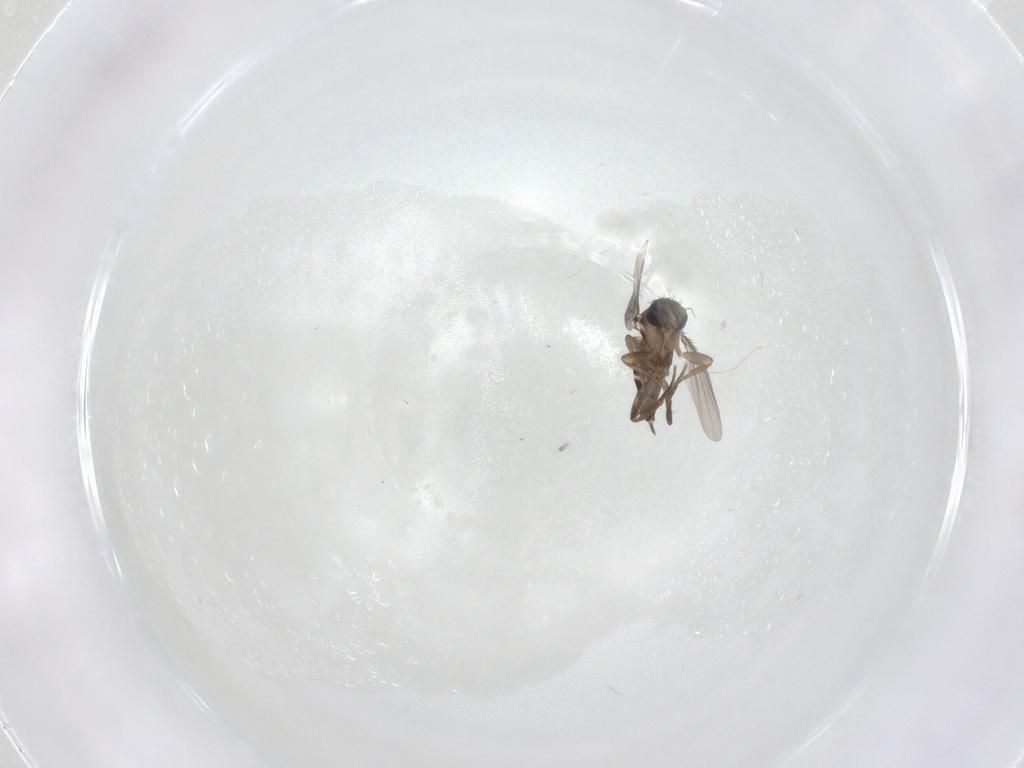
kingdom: Animalia
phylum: Arthropoda
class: Insecta
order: Diptera
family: Phoridae
